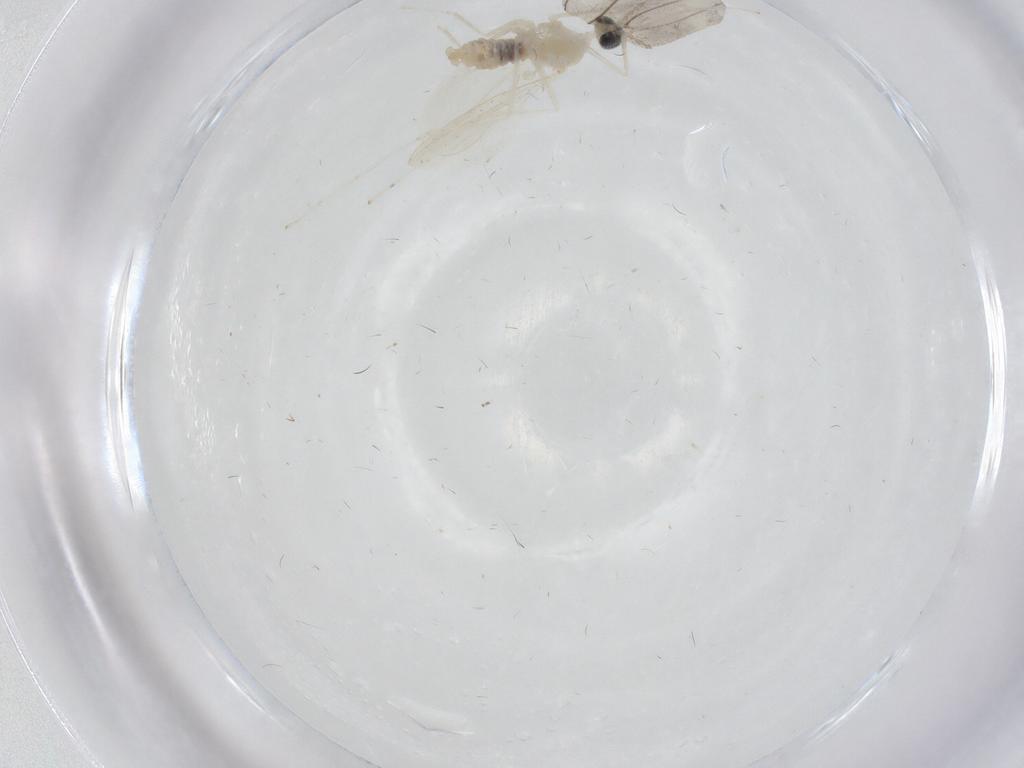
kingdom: Animalia
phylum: Arthropoda
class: Insecta
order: Diptera
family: Cecidomyiidae
